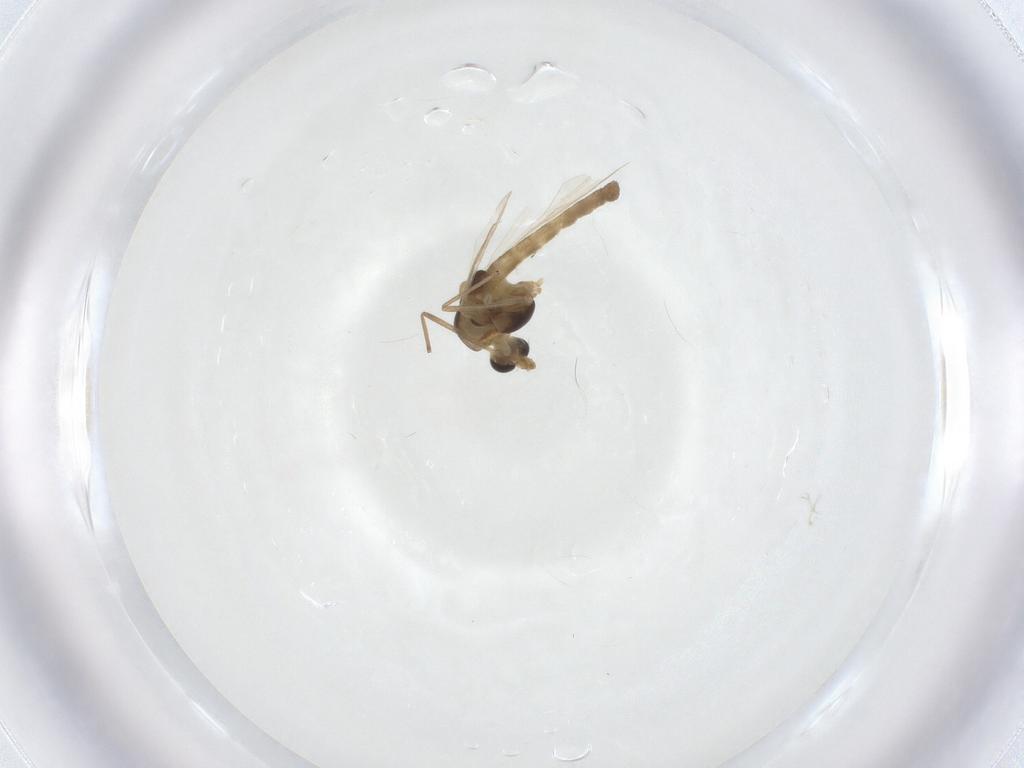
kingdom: Animalia
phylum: Arthropoda
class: Insecta
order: Diptera
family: Chironomidae
